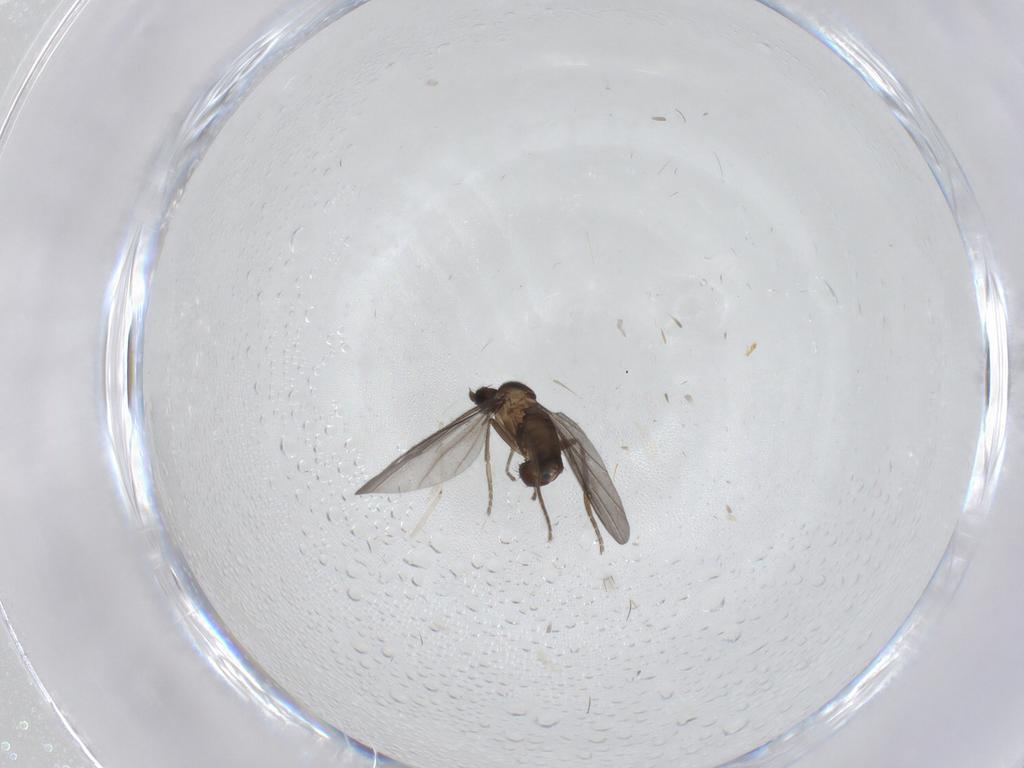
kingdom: Animalia
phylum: Arthropoda
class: Insecta
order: Diptera
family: Phoridae
